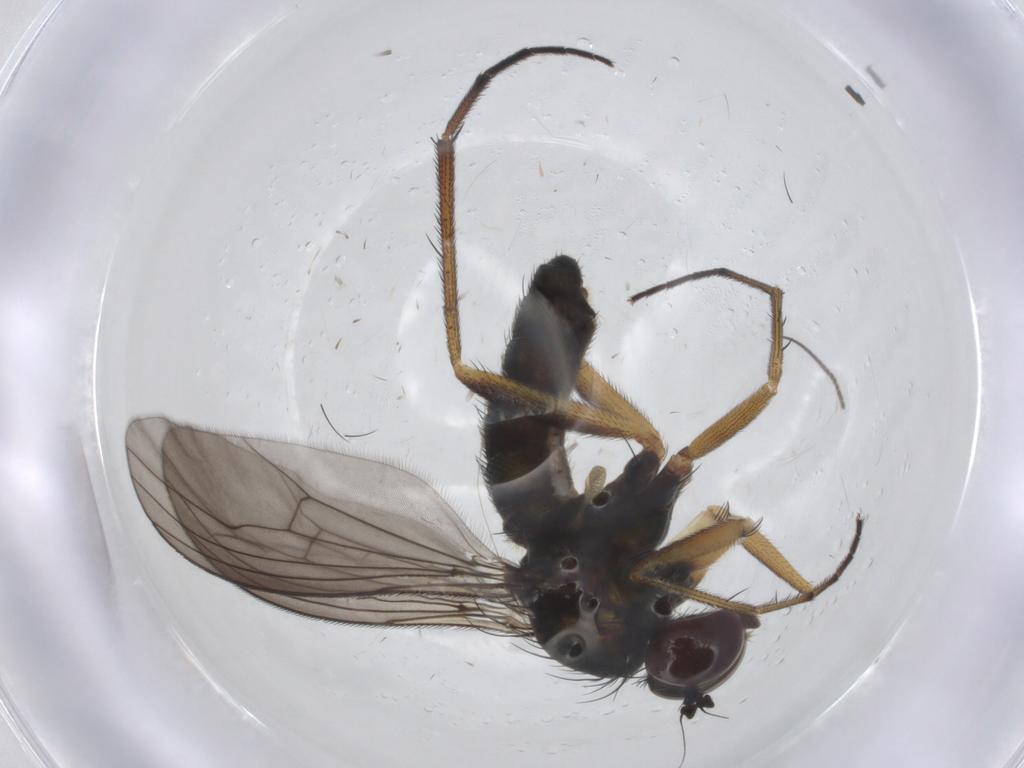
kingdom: Animalia
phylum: Arthropoda
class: Insecta
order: Diptera
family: Dolichopodidae
